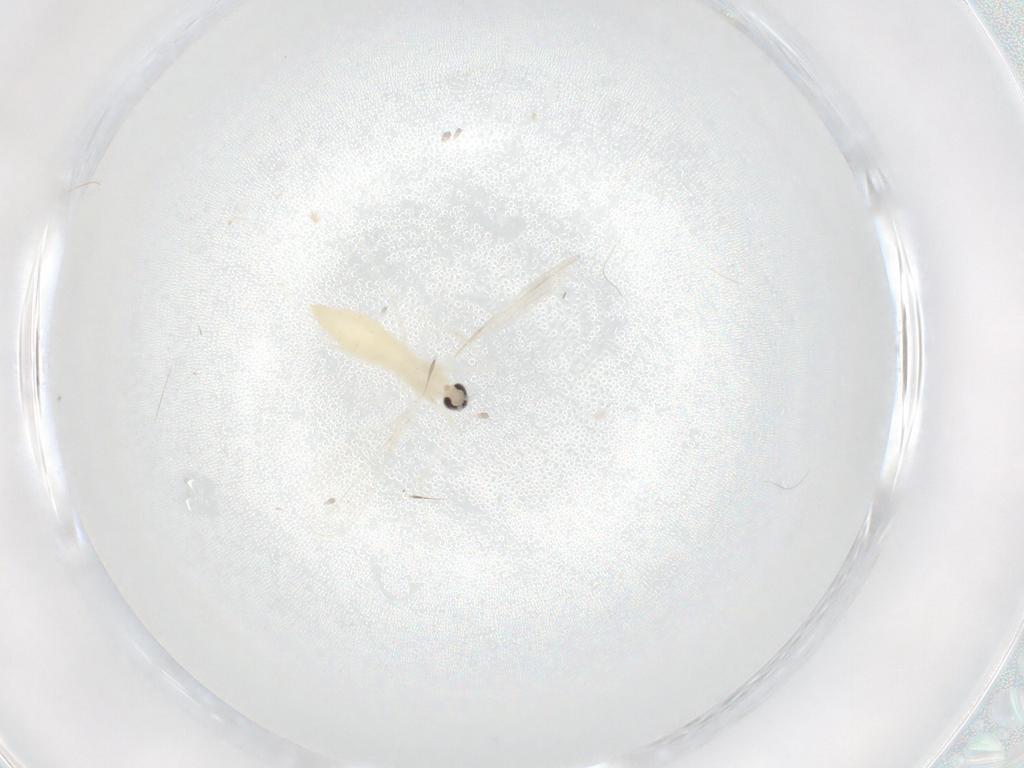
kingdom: Animalia
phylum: Arthropoda
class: Insecta
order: Diptera
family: Cecidomyiidae
